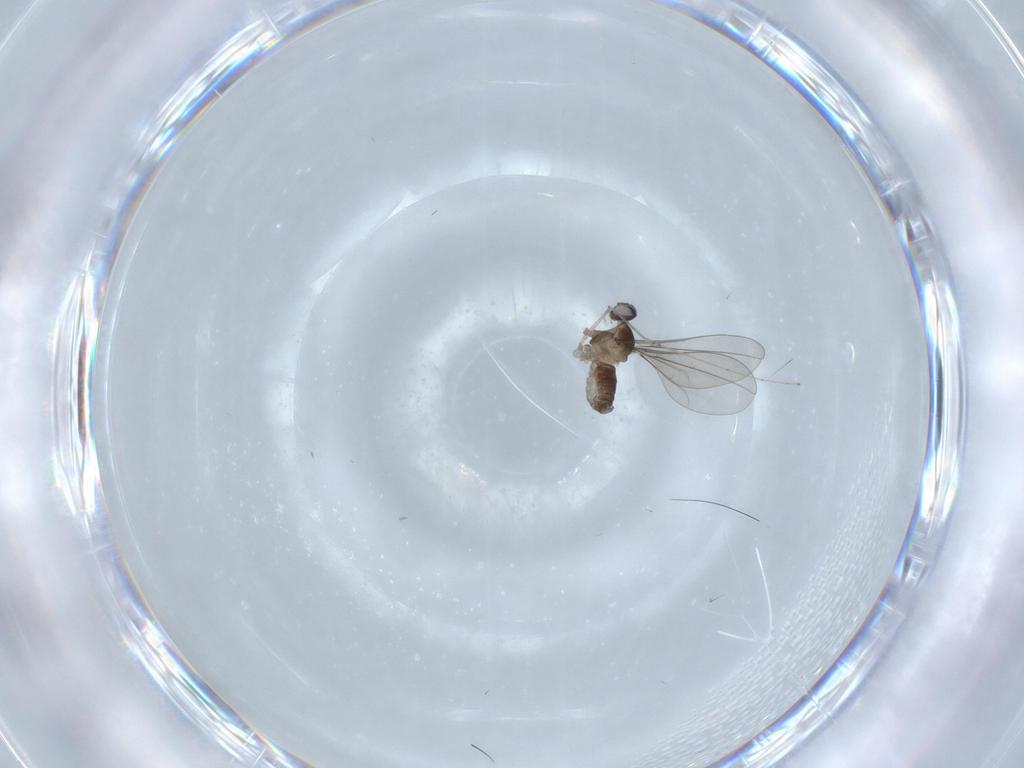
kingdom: Animalia
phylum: Arthropoda
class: Insecta
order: Diptera
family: Cecidomyiidae
